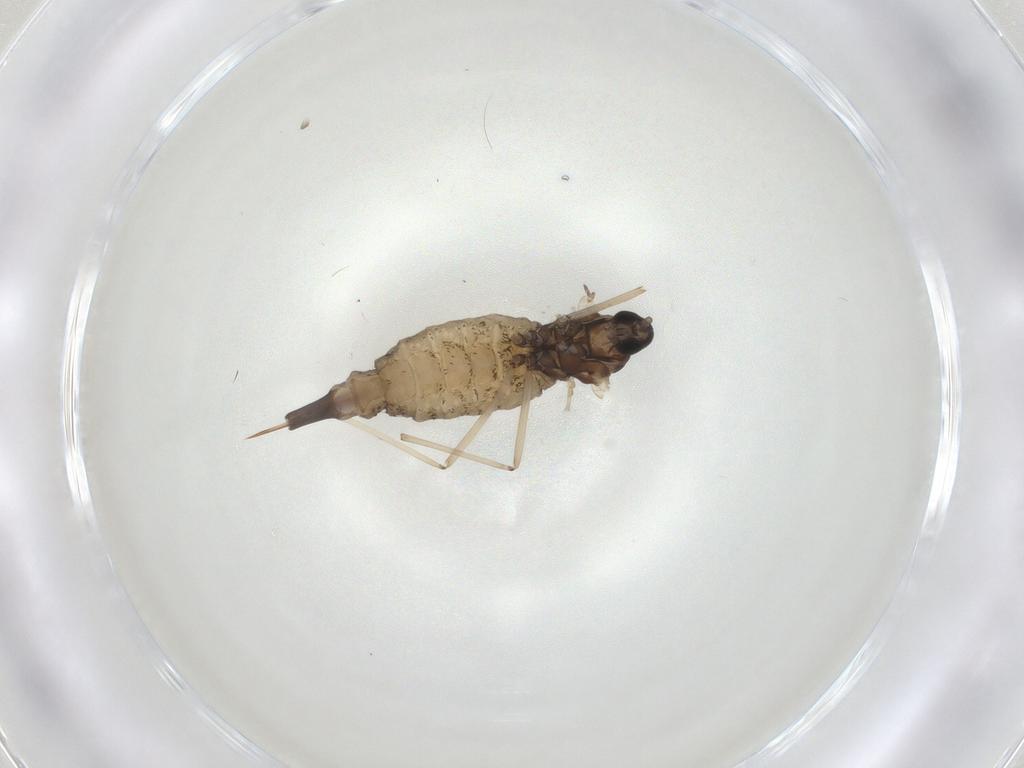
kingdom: Animalia
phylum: Arthropoda
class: Insecta
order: Diptera
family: Cecidomyiidae
